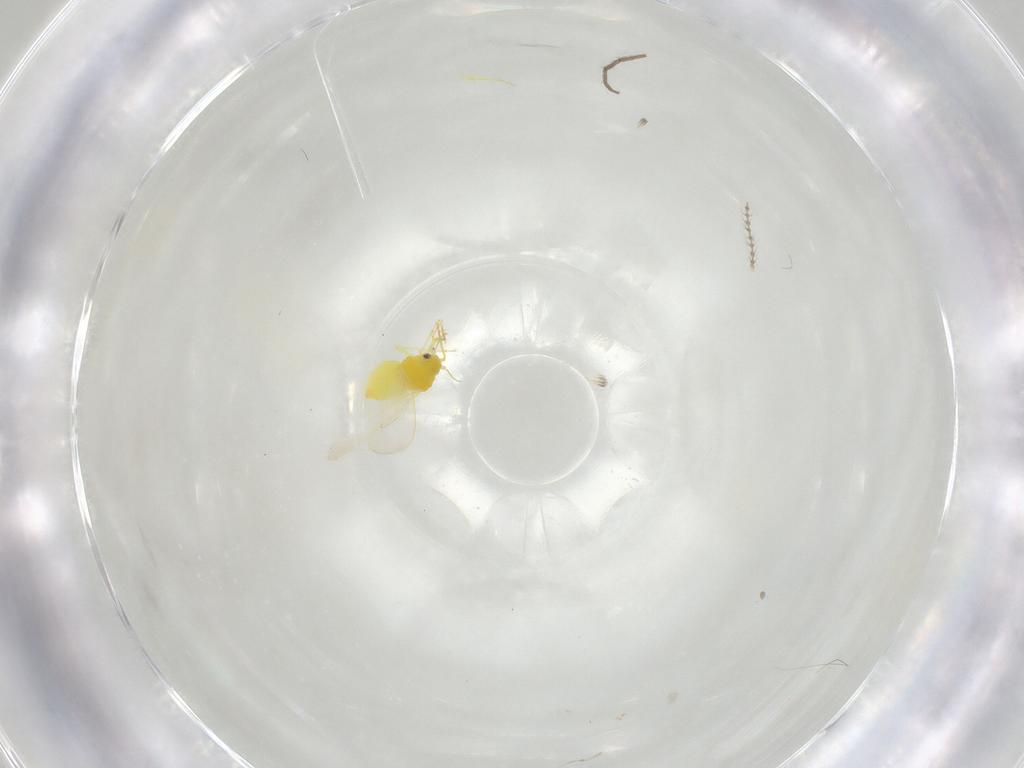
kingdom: Animalia
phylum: Arthropoda
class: Insecta
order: Hemiptera
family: Aleyrodidae
